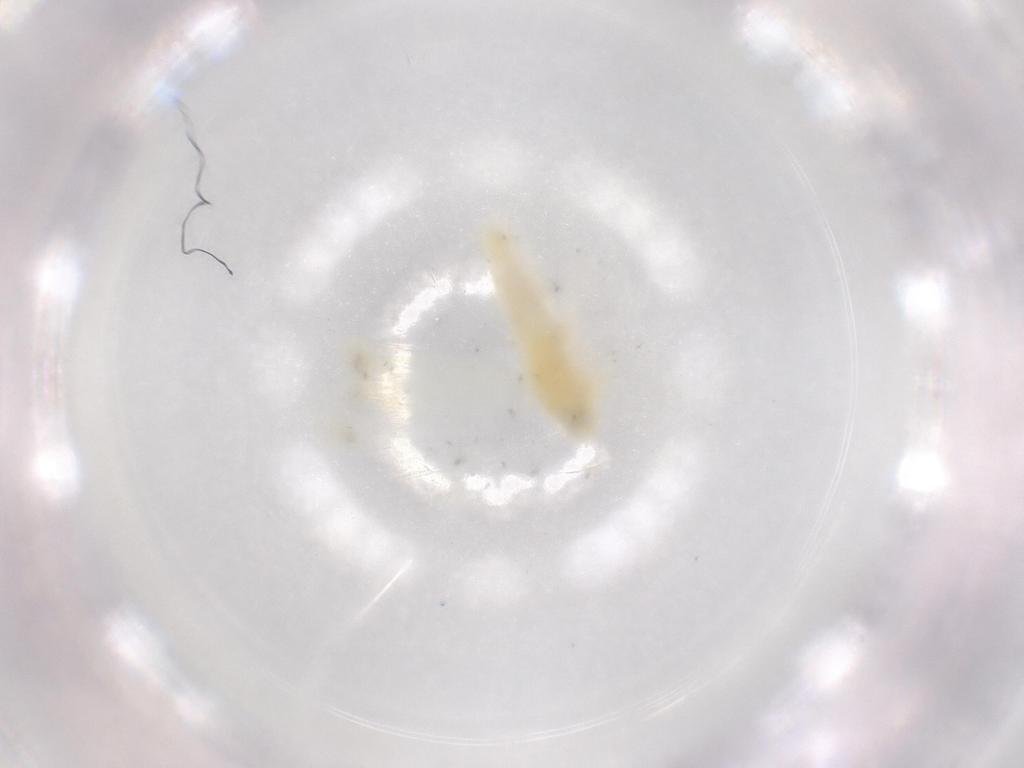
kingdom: Animalia
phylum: Arthropoda
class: Insecta
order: Hemiptera
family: Cicadellidae
